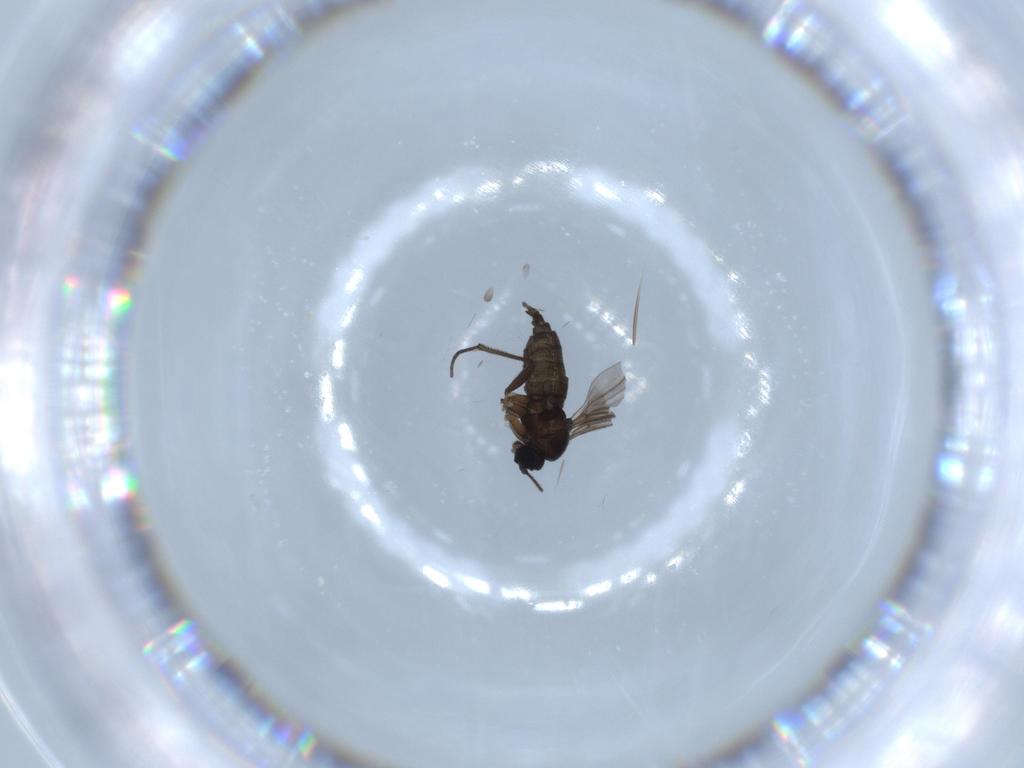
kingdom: Animalia
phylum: Arthropoda
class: Insecta
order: Diptera
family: Sciaridae
